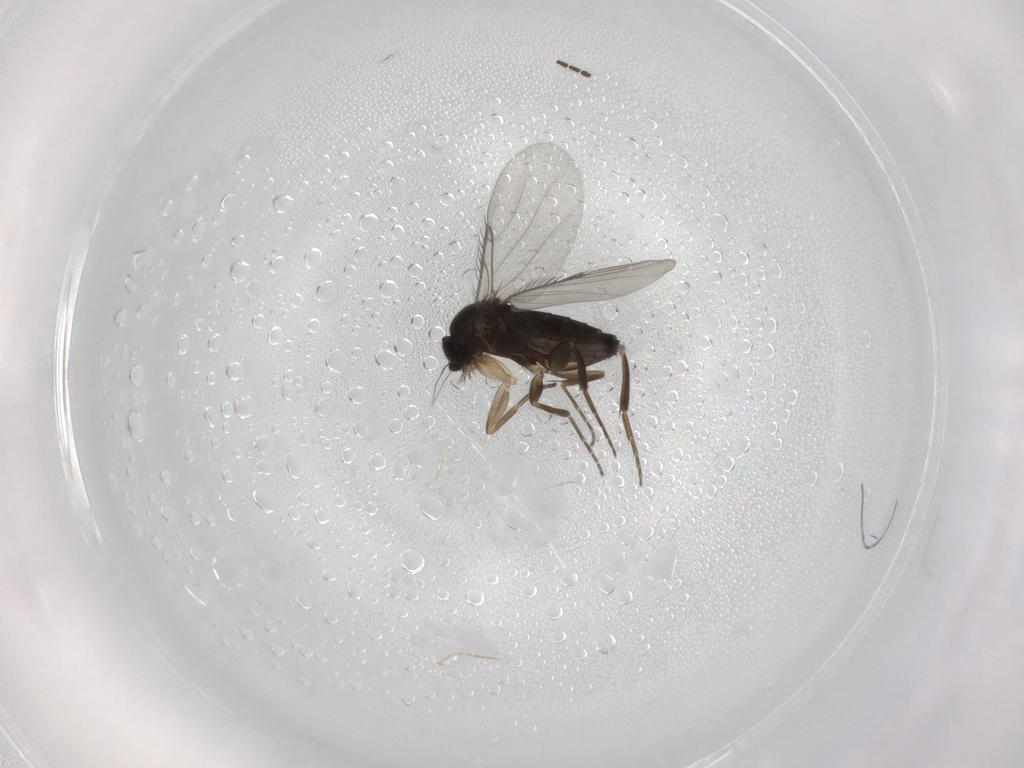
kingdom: Animalia
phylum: Arthropoda
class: Insecta
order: Diptera
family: Phoridae
